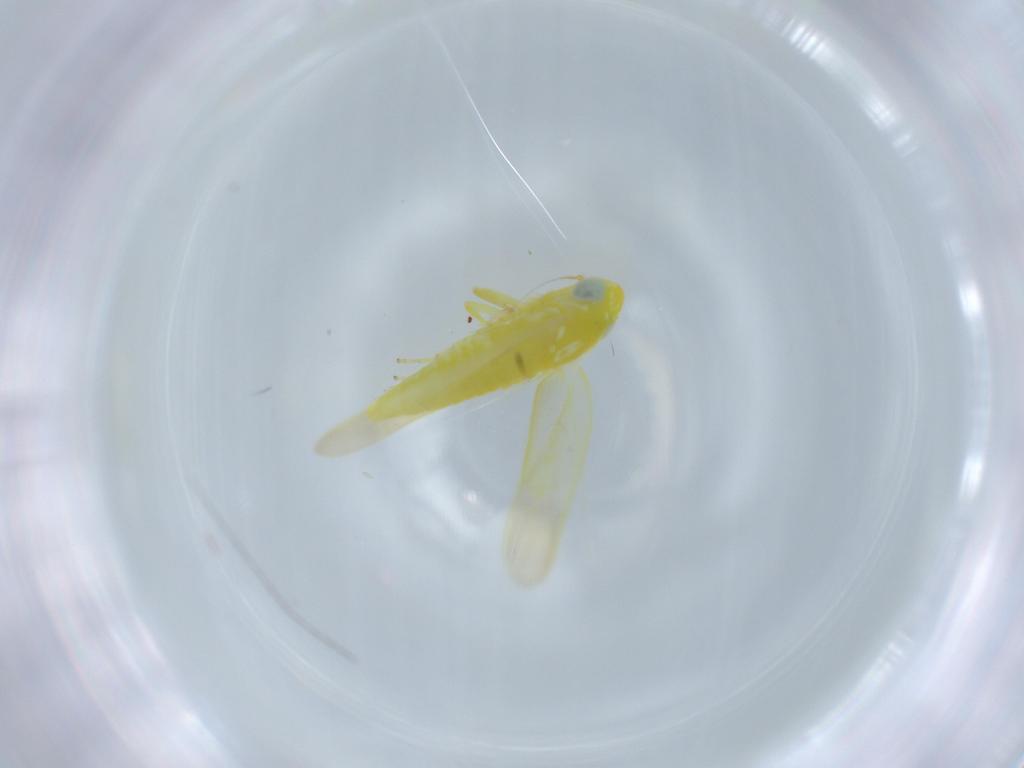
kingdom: Animalia
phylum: Arthropoda
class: Insecta
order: Hemiptera
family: Cicadellidae
